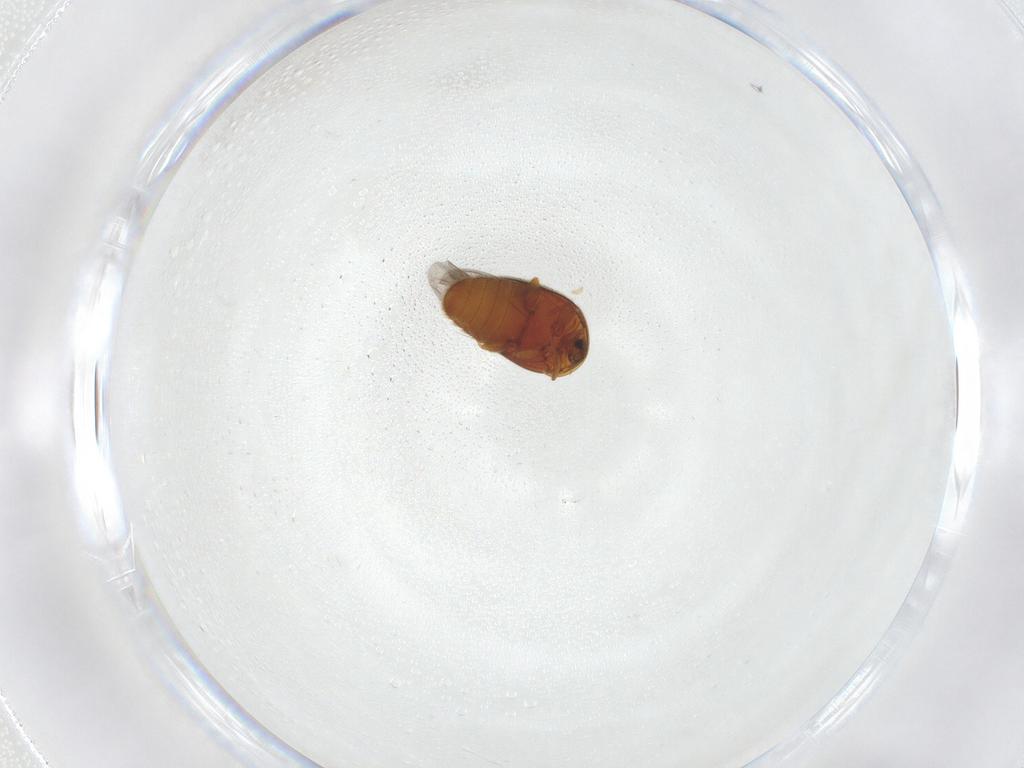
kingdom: Animalia
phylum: Arthropoda
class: Insecta
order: Coleoptera
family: Corylophidae
